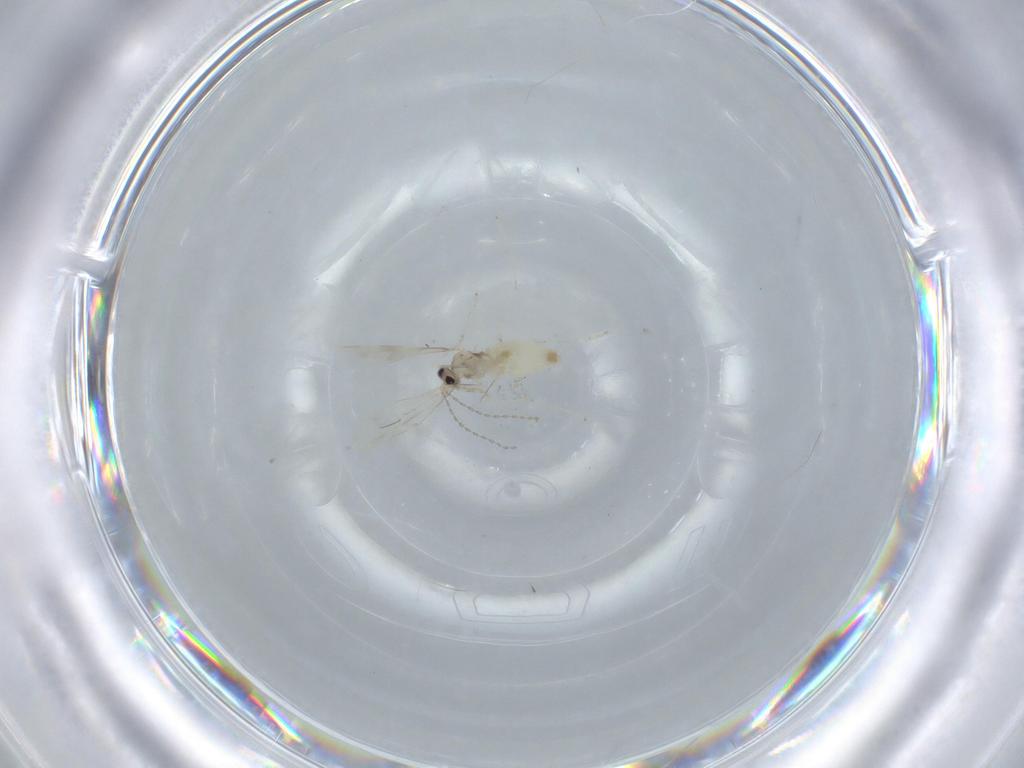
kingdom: Animalia
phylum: Arthropoda
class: Insecta
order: Diptera
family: Cecidomyiidae
